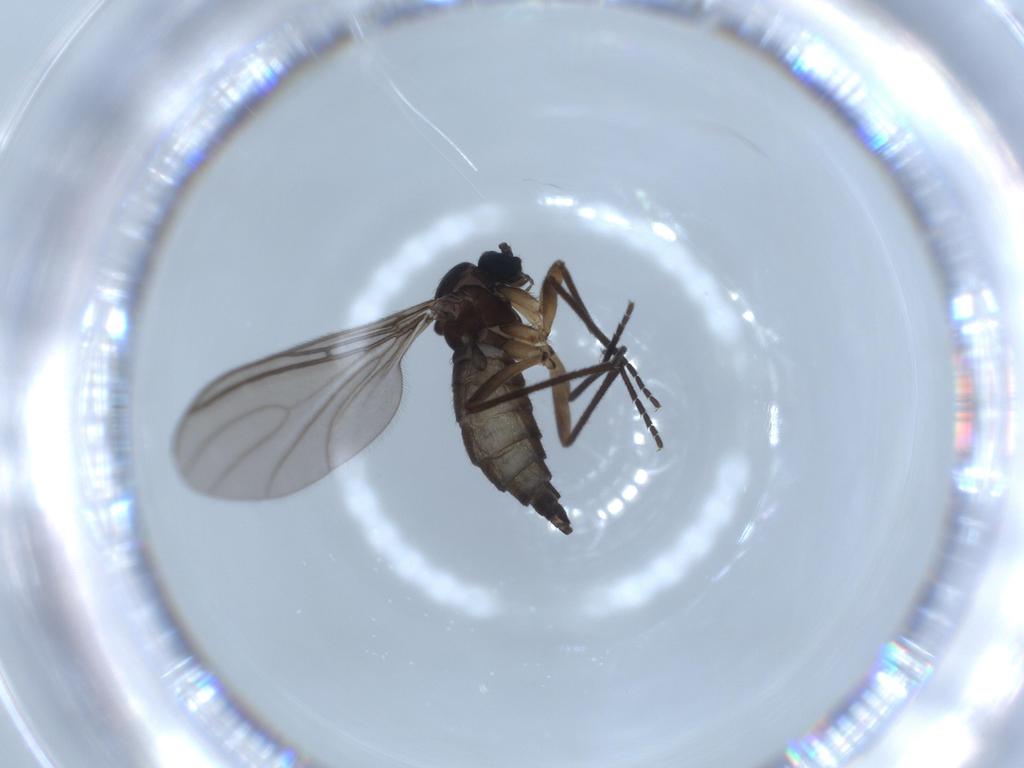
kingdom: Animalia
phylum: Arthropoda
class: Insecta
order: Diptera
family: Sciaridae
